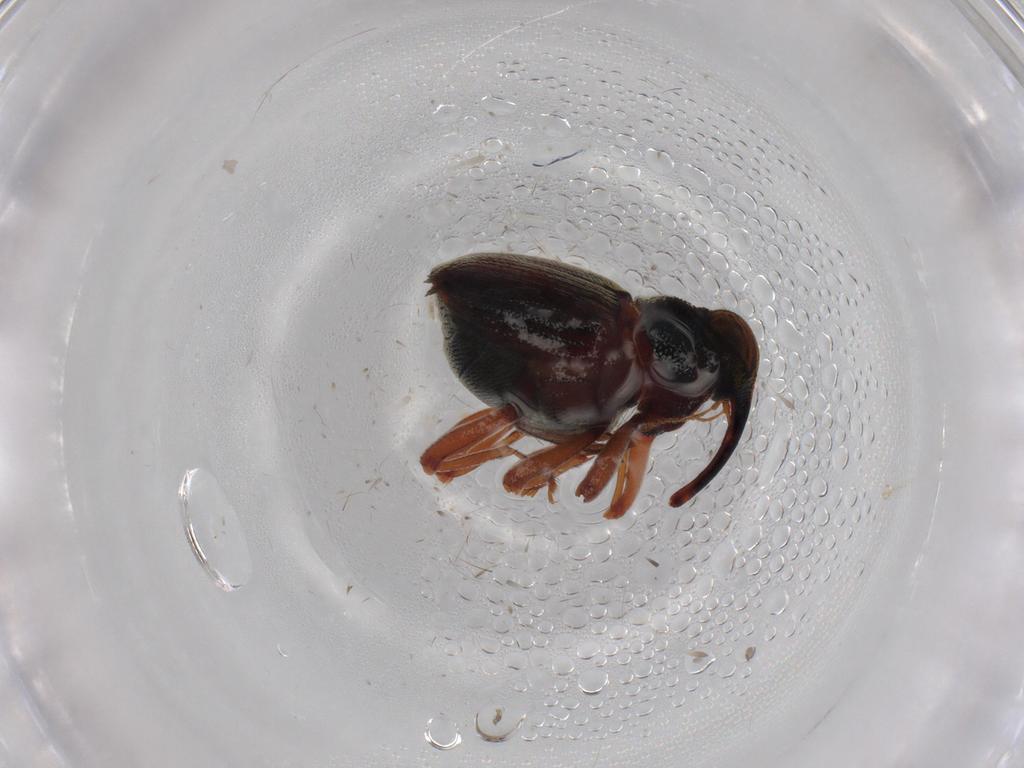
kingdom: Animalia
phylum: Arthropoda
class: Insecta
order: Coleoptera
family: Curculionidae
